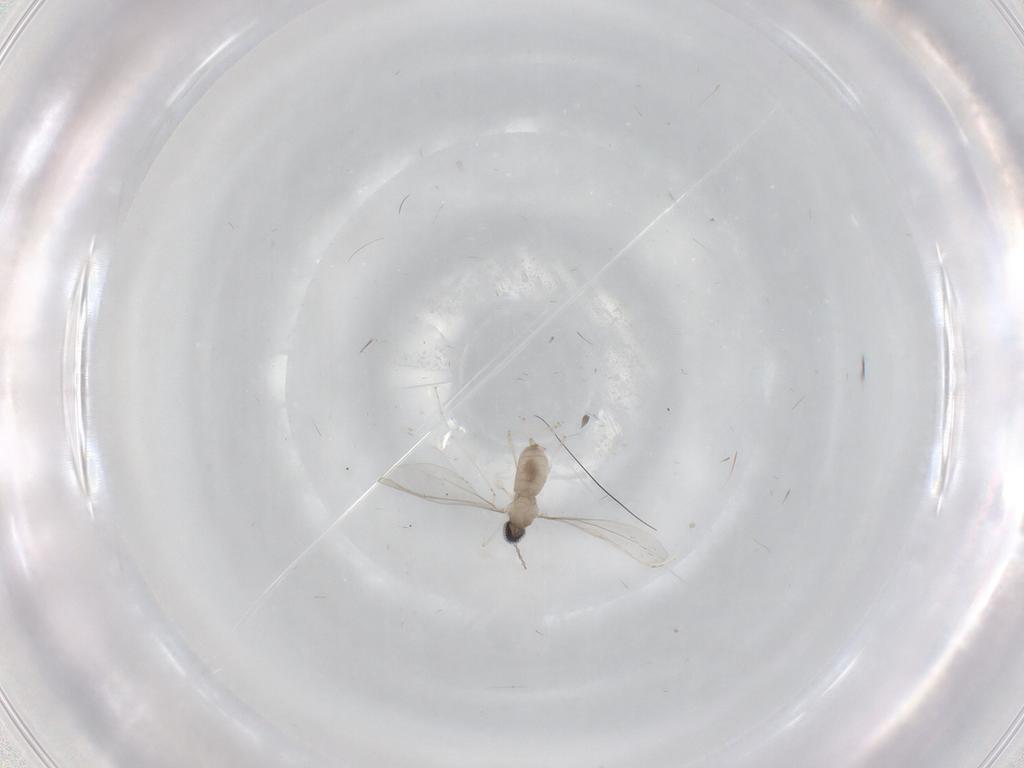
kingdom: Animalia
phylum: Arthropoda
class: Insecta
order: Diptera
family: Cecidomyiidae
